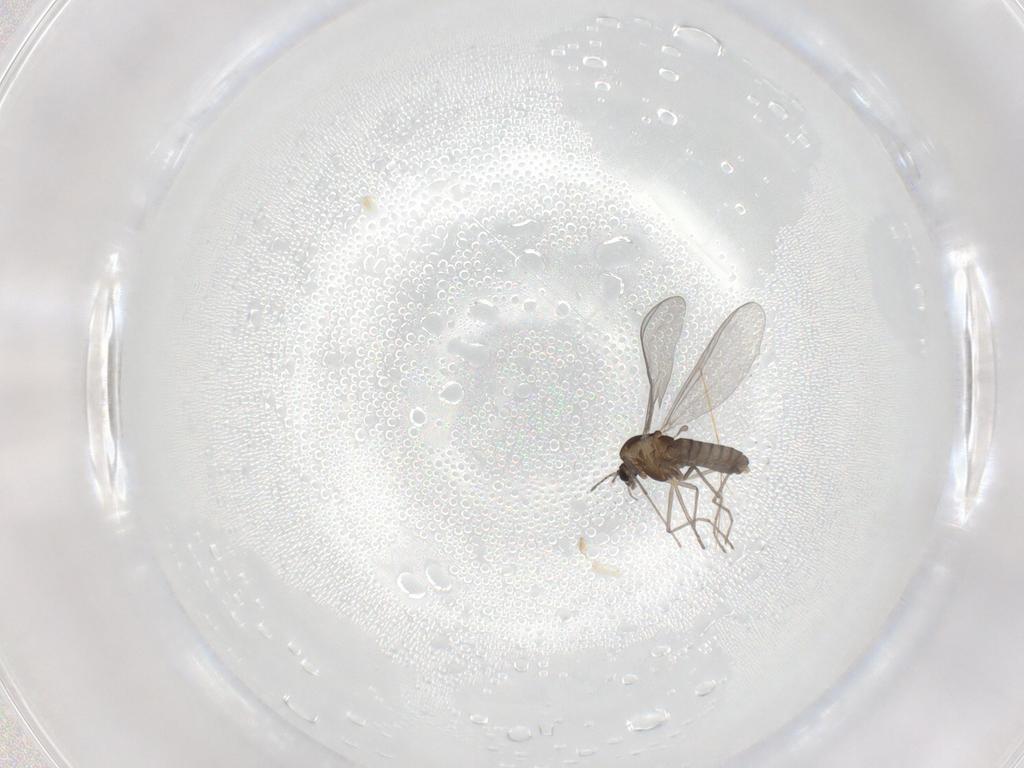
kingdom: Animalia
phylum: Arthropoda
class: Insecta
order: Diptera
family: Chironomidae
